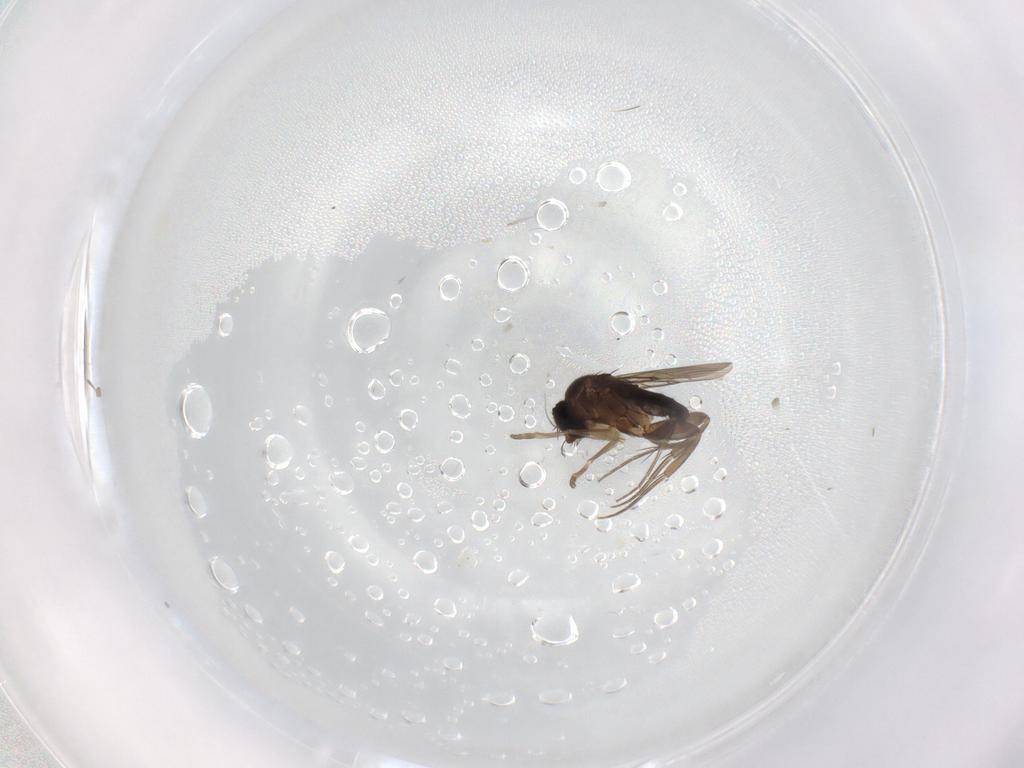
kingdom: Animalia
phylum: Arthropoda
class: Insecta
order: Diptera
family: Phoridae
